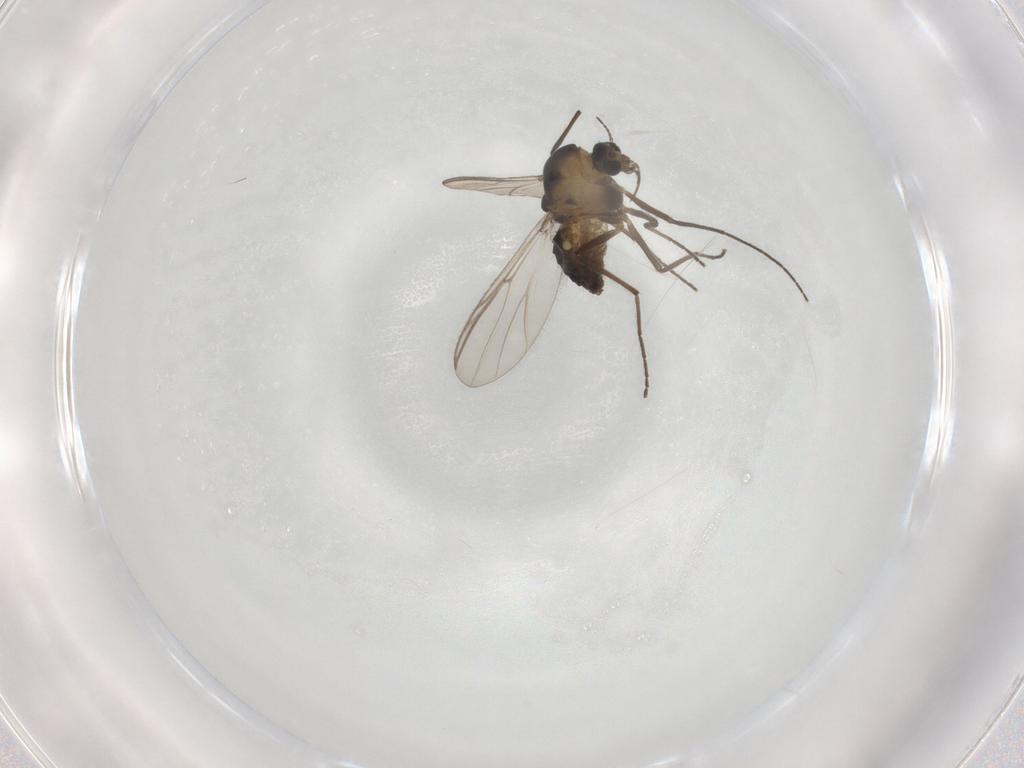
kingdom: Animalia
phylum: Arthropoda
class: Insecta
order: Diptera
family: Chironomidae
